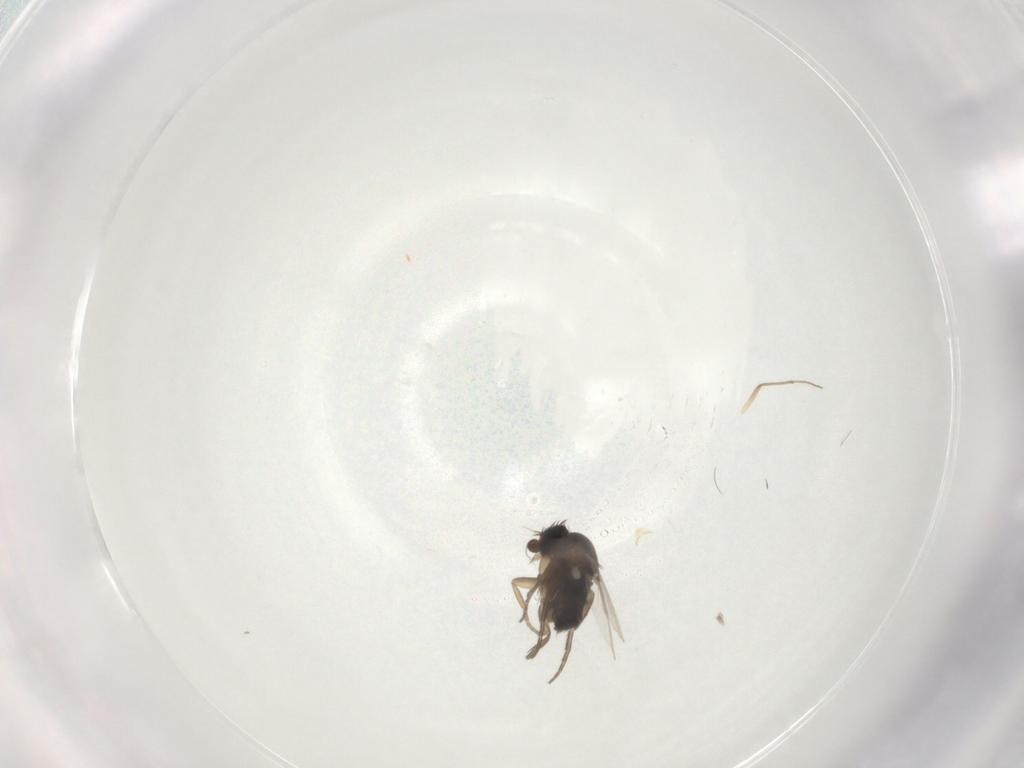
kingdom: Animalia
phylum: Arthropoda
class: Insecta
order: Diptera
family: Phoridae
